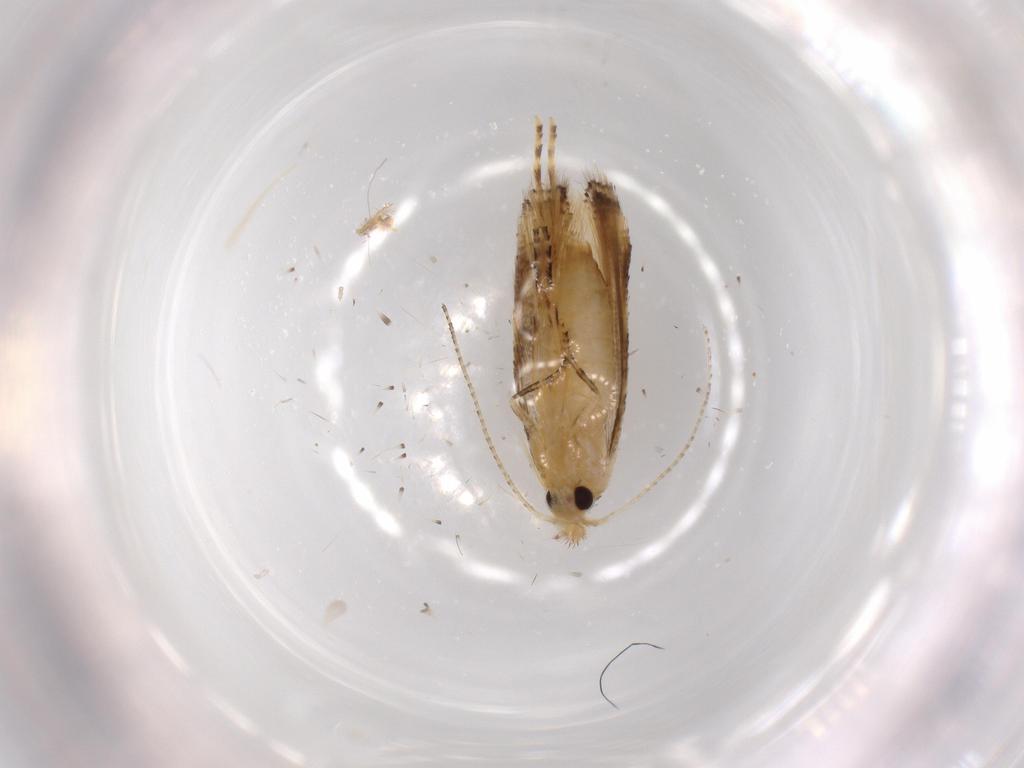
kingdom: Animalia
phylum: Arthropoda
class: Insecta
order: Lepidoptera
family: Bucculatricidae
